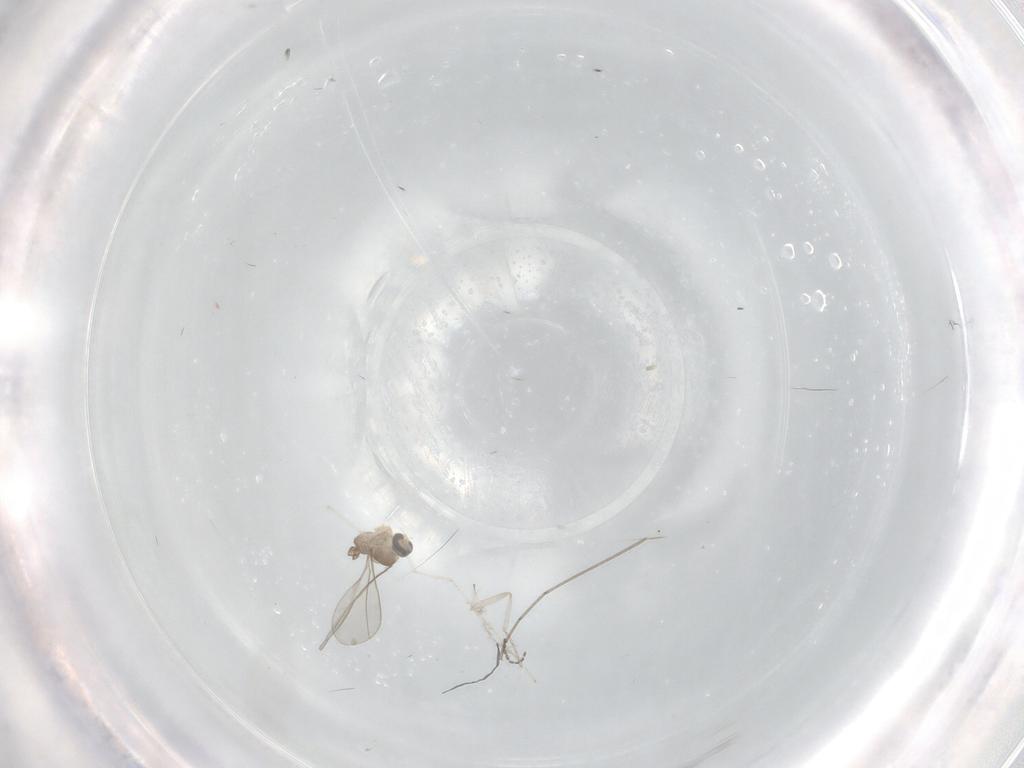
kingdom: Animalia
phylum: Arthropoda
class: Insecta
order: Diptera
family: Cecidomyiidae
